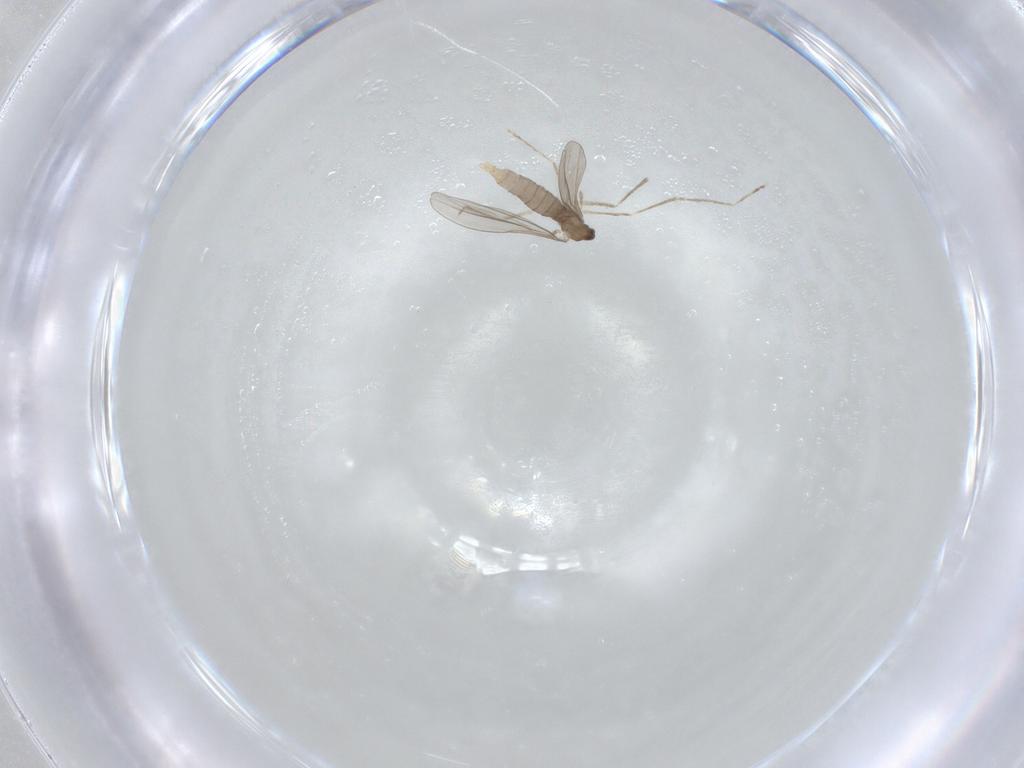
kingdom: Animalia
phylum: Arthropoda
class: Insecta
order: Diptera
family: Cecidomyiidae
